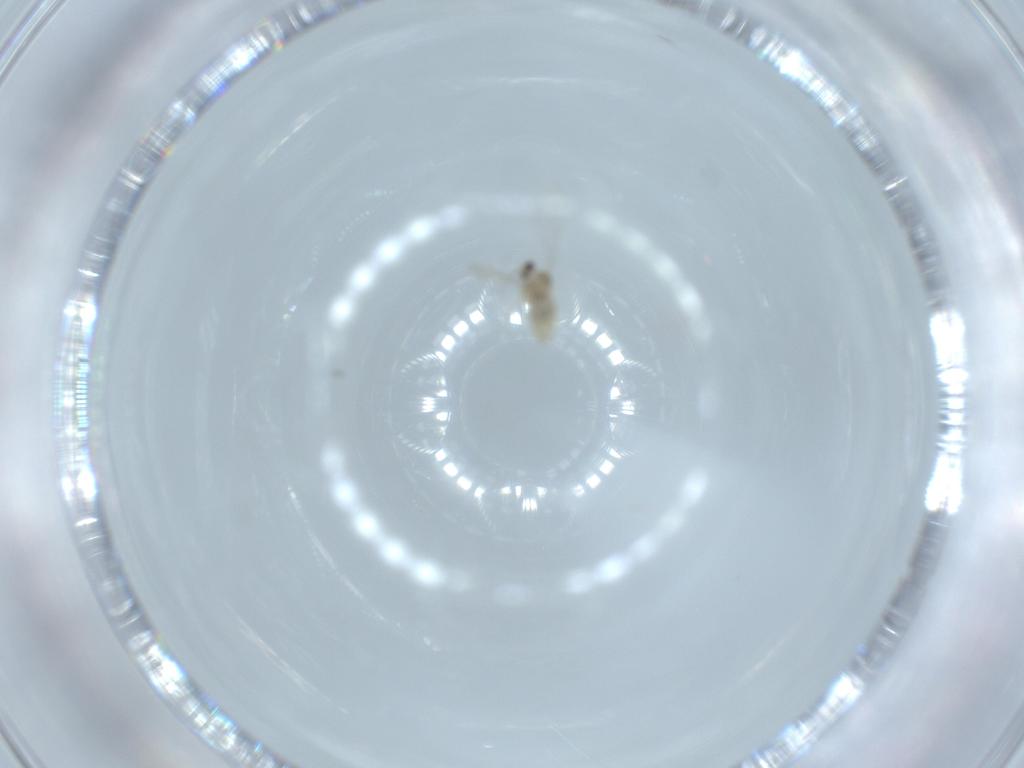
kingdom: Animalia
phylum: Arthropoda
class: Insecta
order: Diptera
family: Cecidomyiidae
